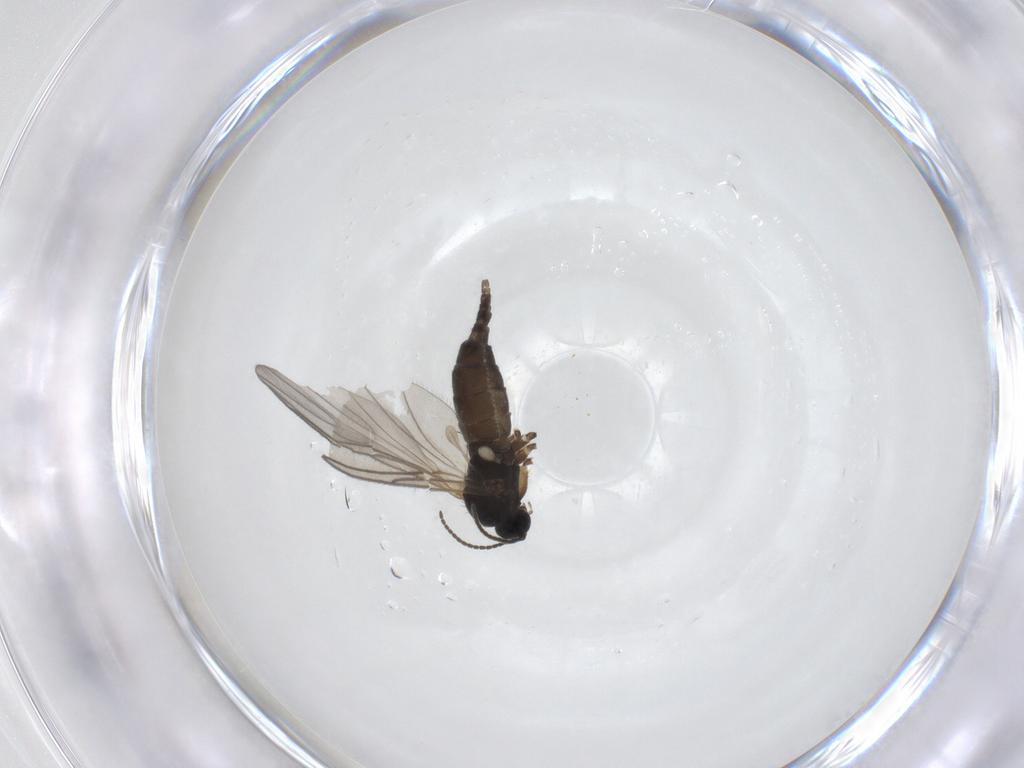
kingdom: Animalia
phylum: Arthropoda
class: Insecta
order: Diptera
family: Sciaridae
